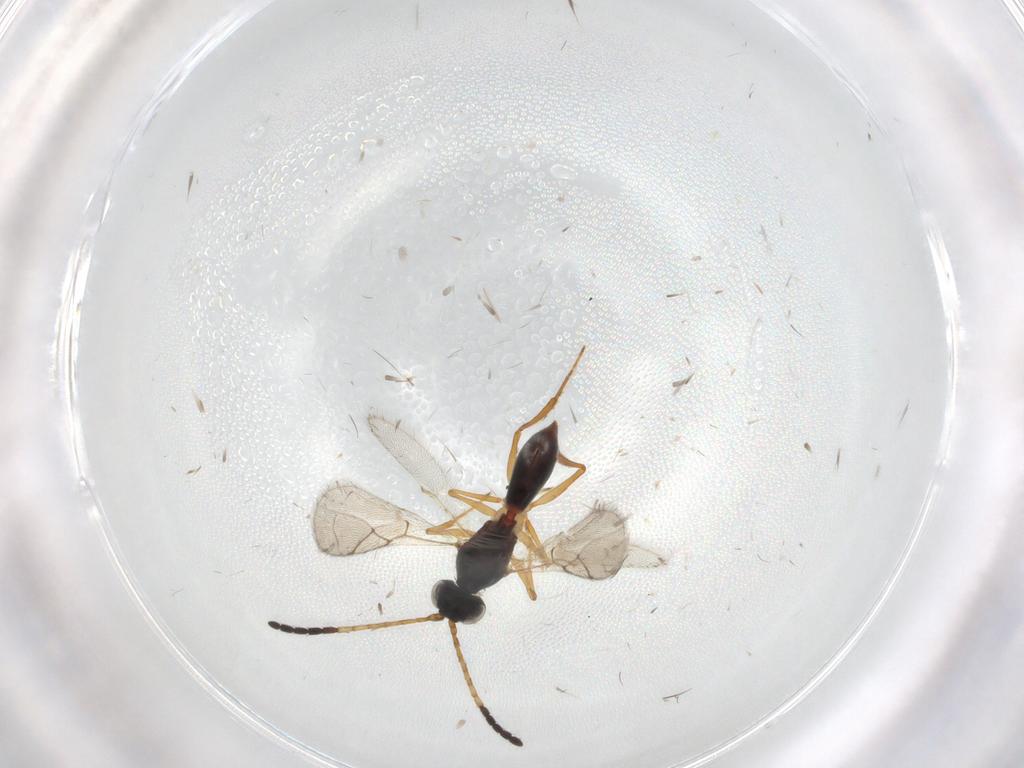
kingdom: Animalia
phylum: Arthropoda
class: Insecta
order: Hymenoptera
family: Figitidae
